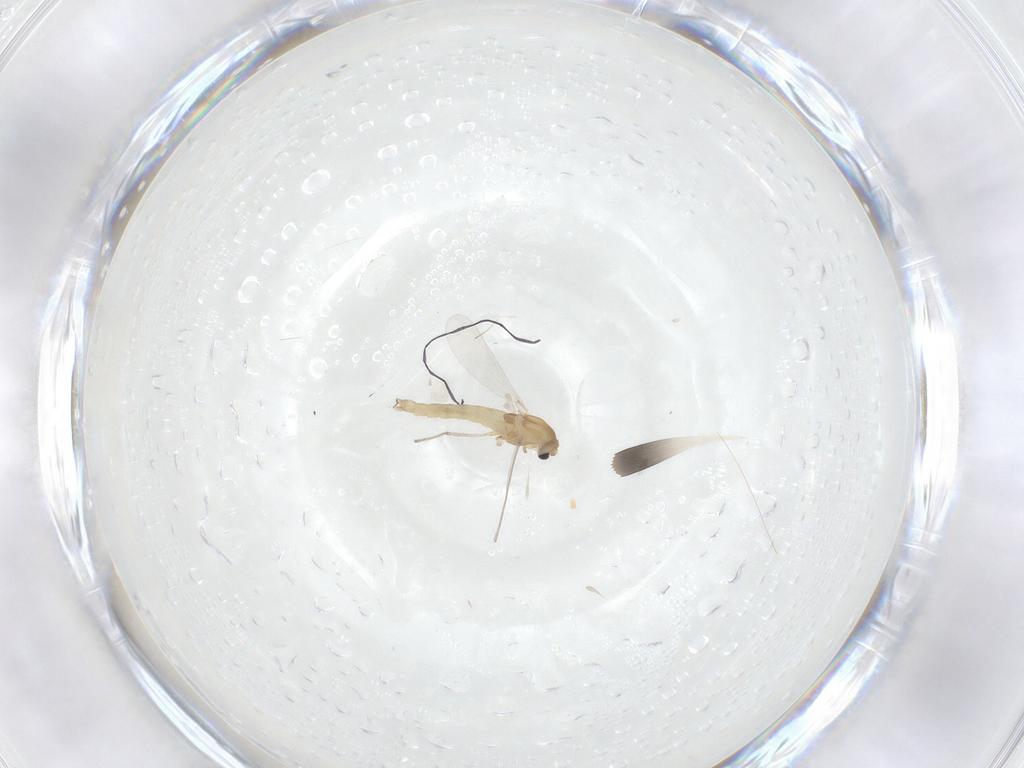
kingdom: Animalia
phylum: Arthropoda
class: Insecta
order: Diptera
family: Chironomidae
